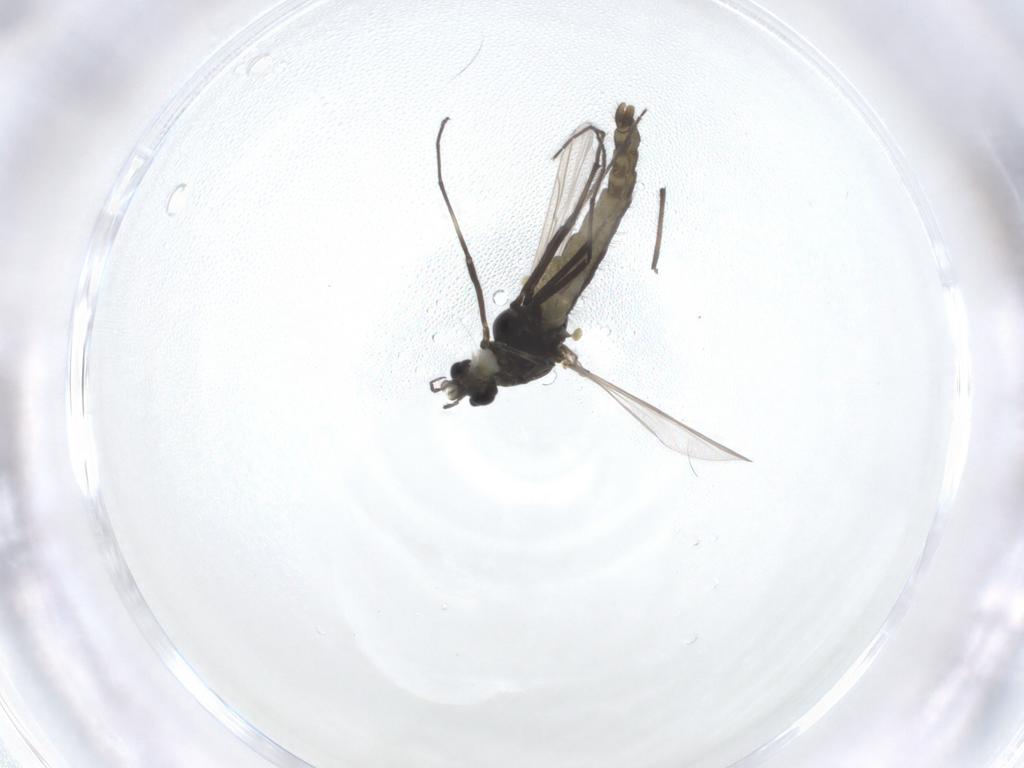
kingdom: Animalia
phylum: Arthropoda
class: Insecta
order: Diptera
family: Chironomidae
